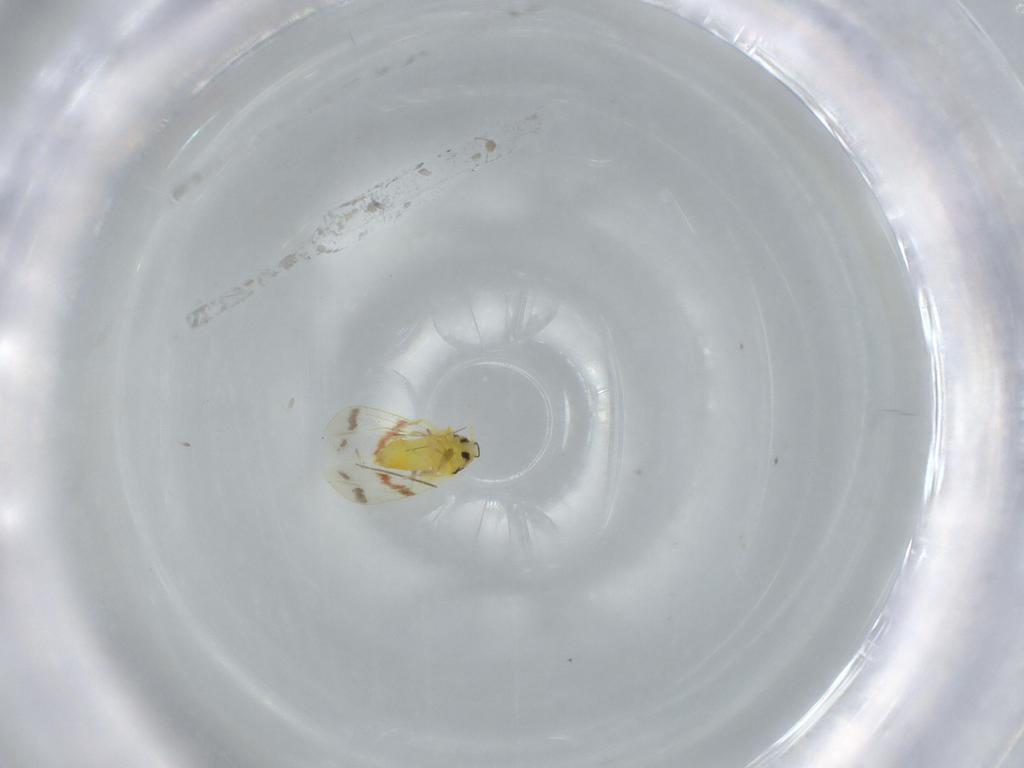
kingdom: Animalia
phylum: Arthropoda
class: Insecta
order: Hemiptera
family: Aleyrodidae
